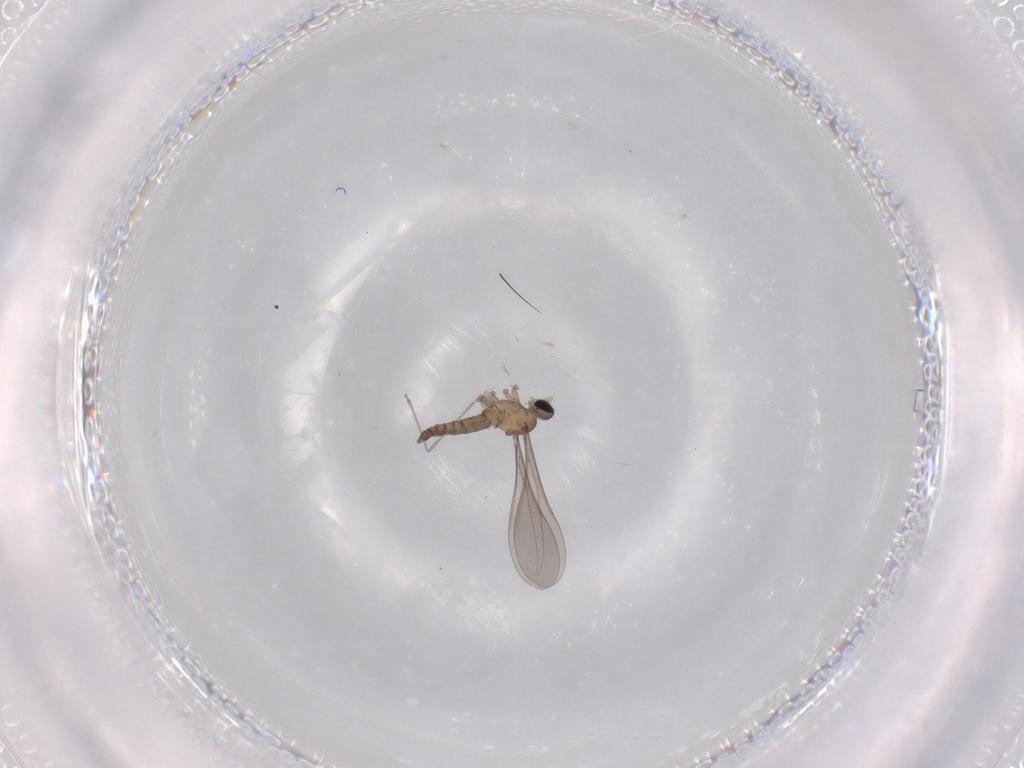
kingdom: Animalia
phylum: Arthropoda
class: Insecta
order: Diptera
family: Cecidomyiidae
